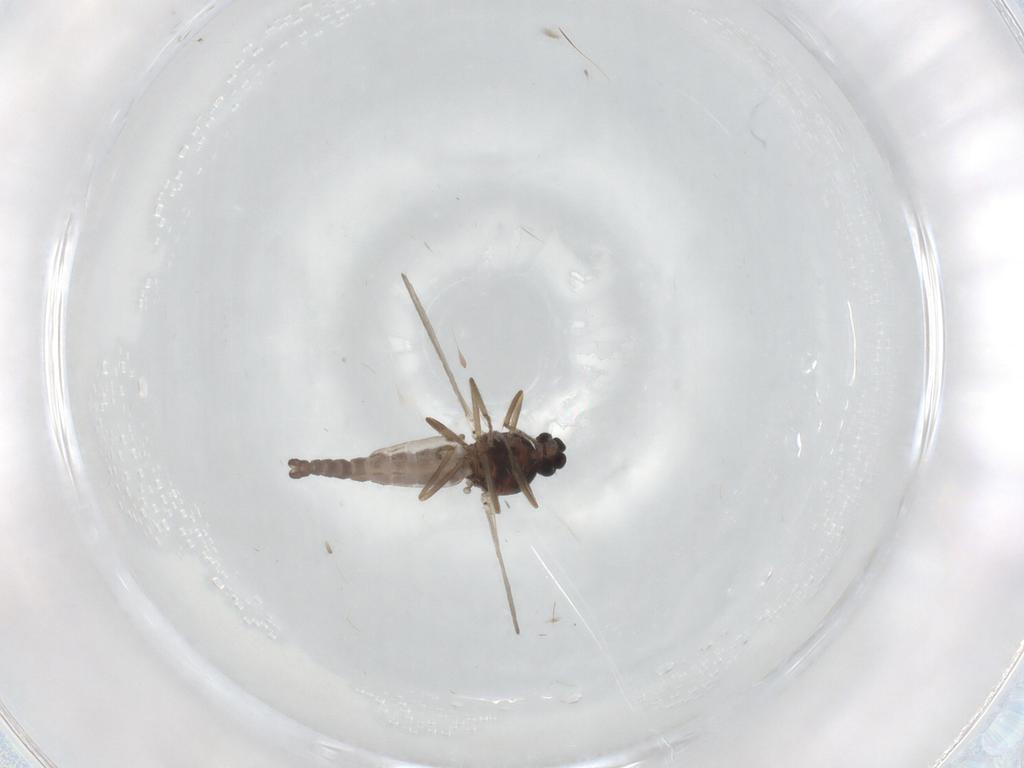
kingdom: Animalia
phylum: Arthropoda
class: Insecta
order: Diptera
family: Ceratopogonidae
